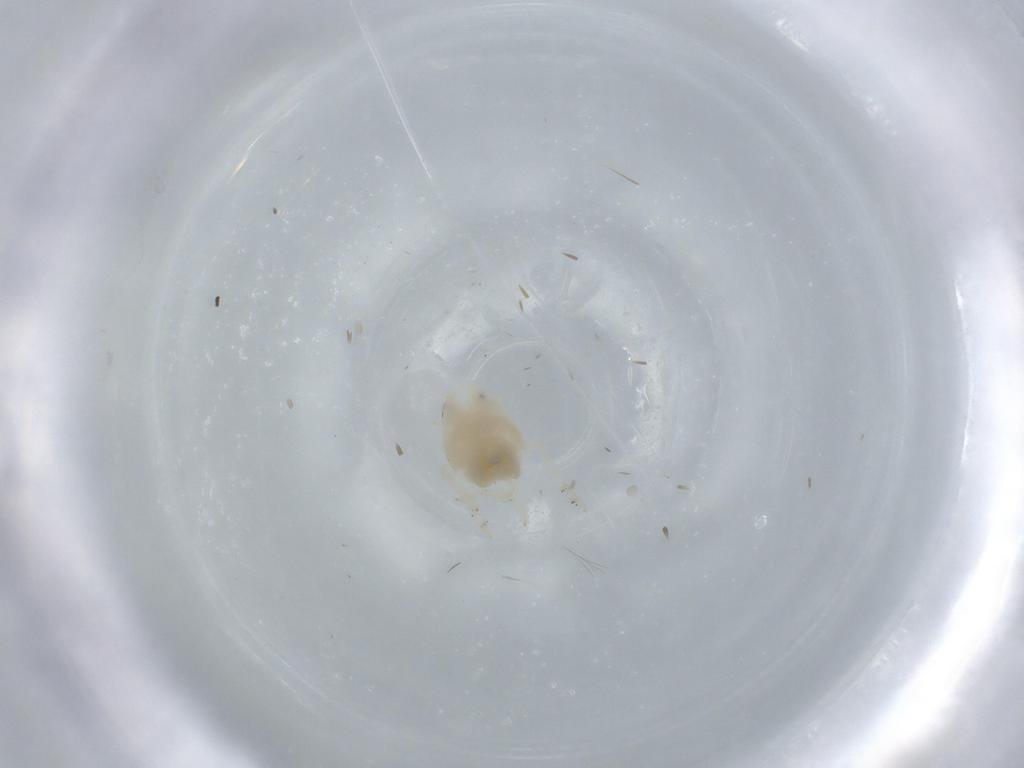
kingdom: Animalia
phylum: Arthropoda
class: Insecta
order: Hemiptera
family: Flatidae
